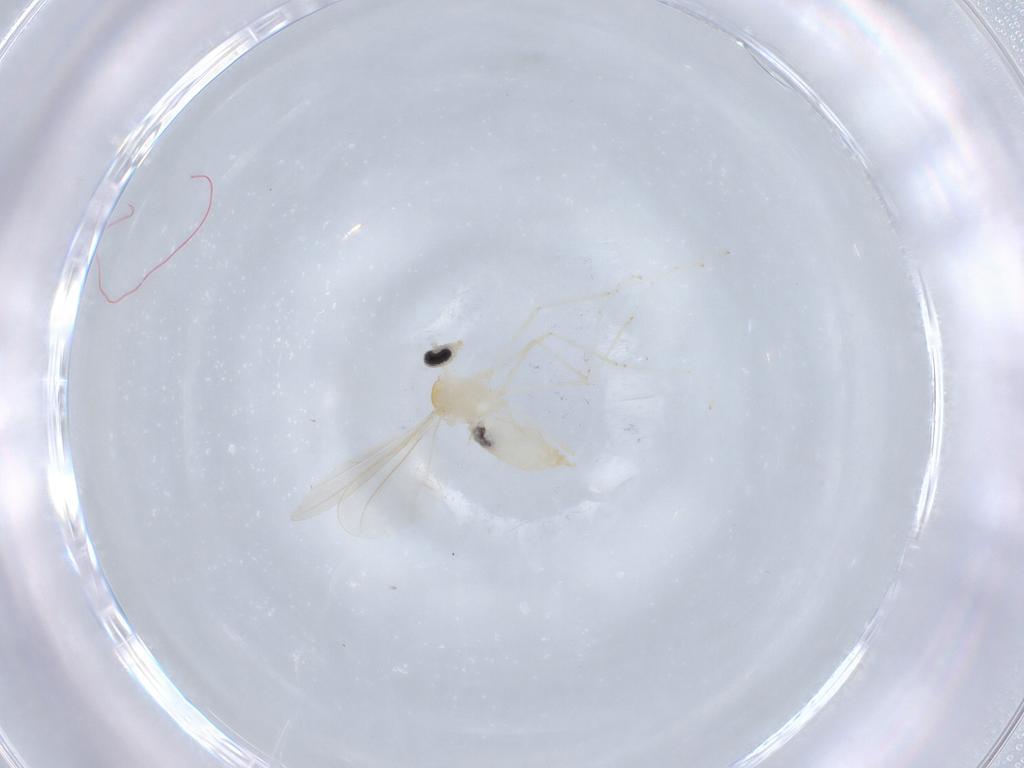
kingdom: Animalia
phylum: Arthropoda
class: Insecta
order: Diptera
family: Cecidomyiidae
